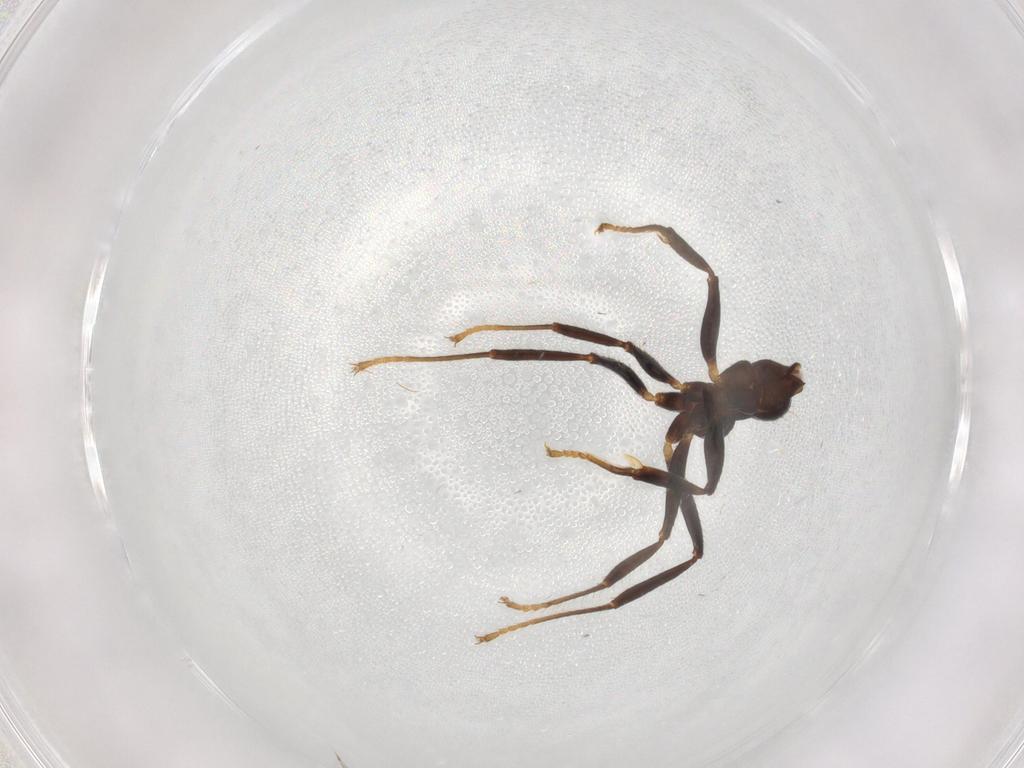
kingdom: Animalia
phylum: Arthropoda
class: Insecta
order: Hymenoptera
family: Formicidae
